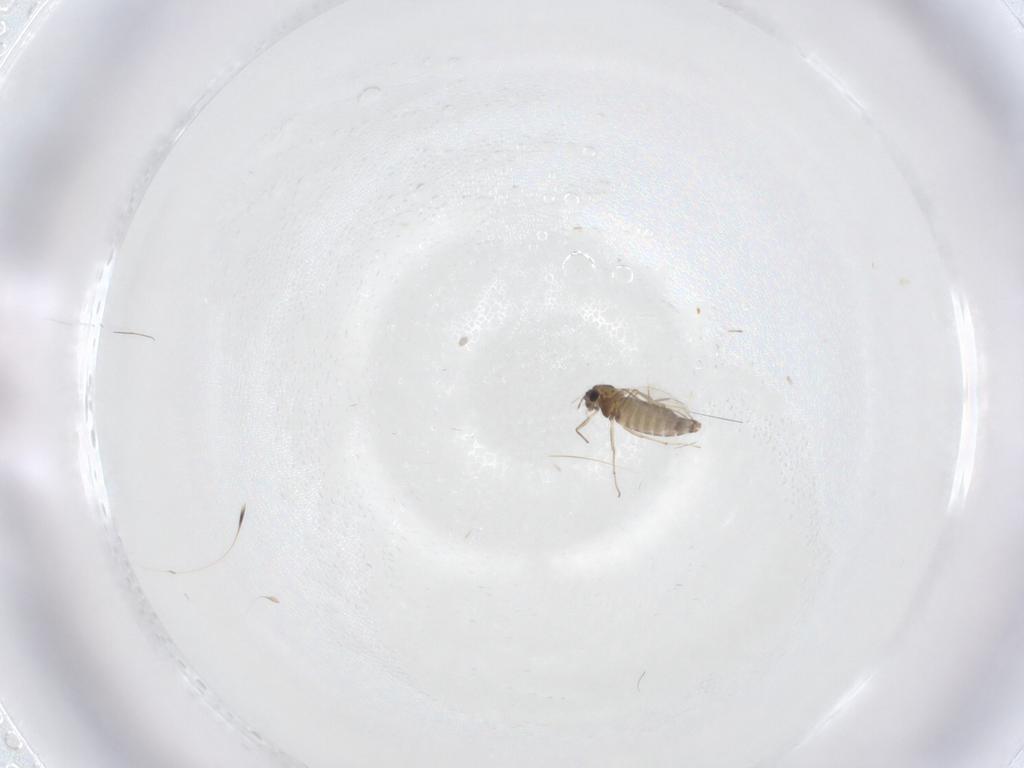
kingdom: Animalia
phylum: Arthropoda
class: Insecta
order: Diptera
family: Chironomidae
